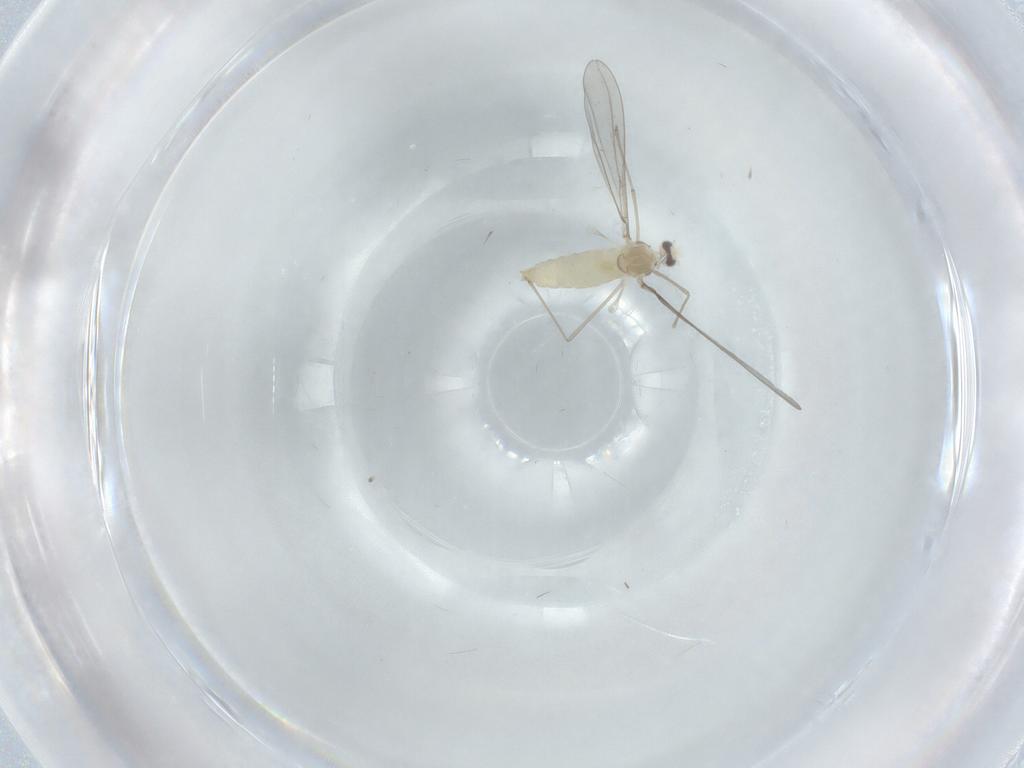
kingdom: Animalia
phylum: Arthropoda
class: Insecta
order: Diptera
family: Cecidomyiidae
